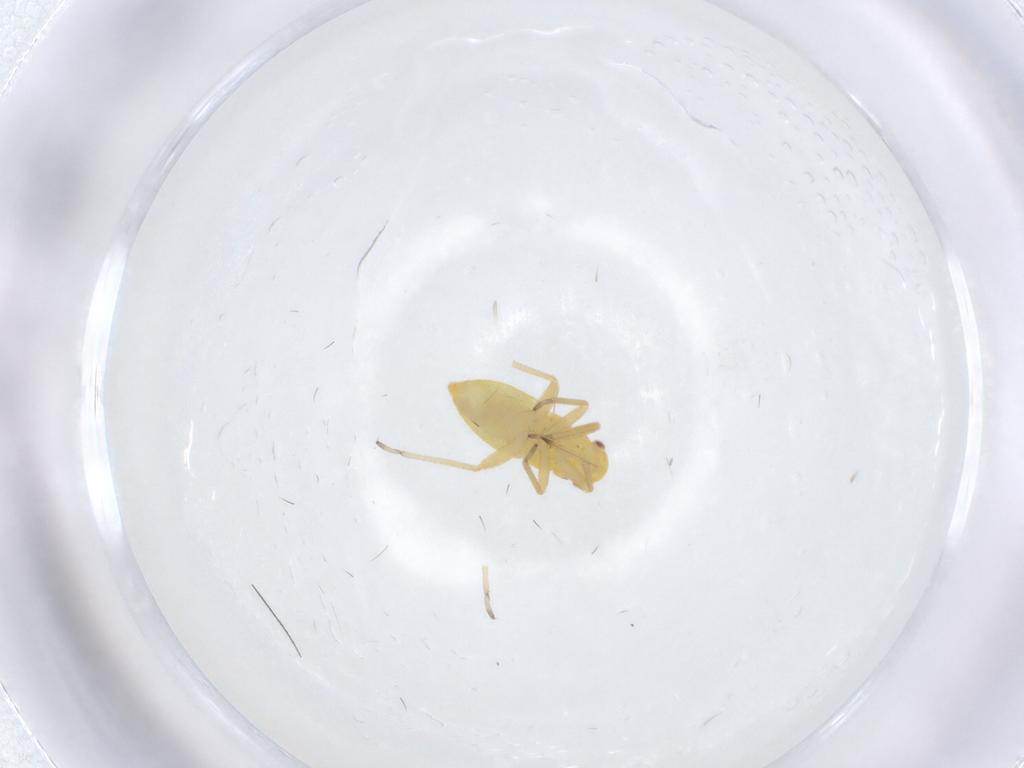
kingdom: Animalia
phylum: Arthropoda
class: Insecta
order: Hemiptera
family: Miridae
